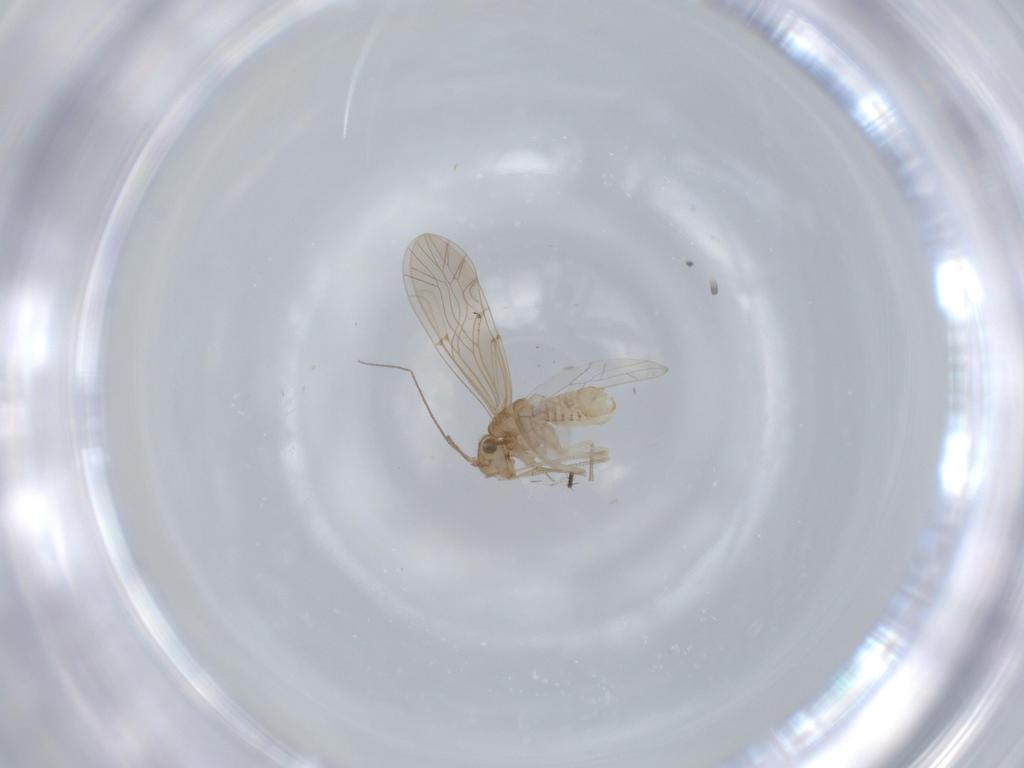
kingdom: Animalia
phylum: Arthropoda
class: Insecta
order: Psocodea
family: Lachesillidae
